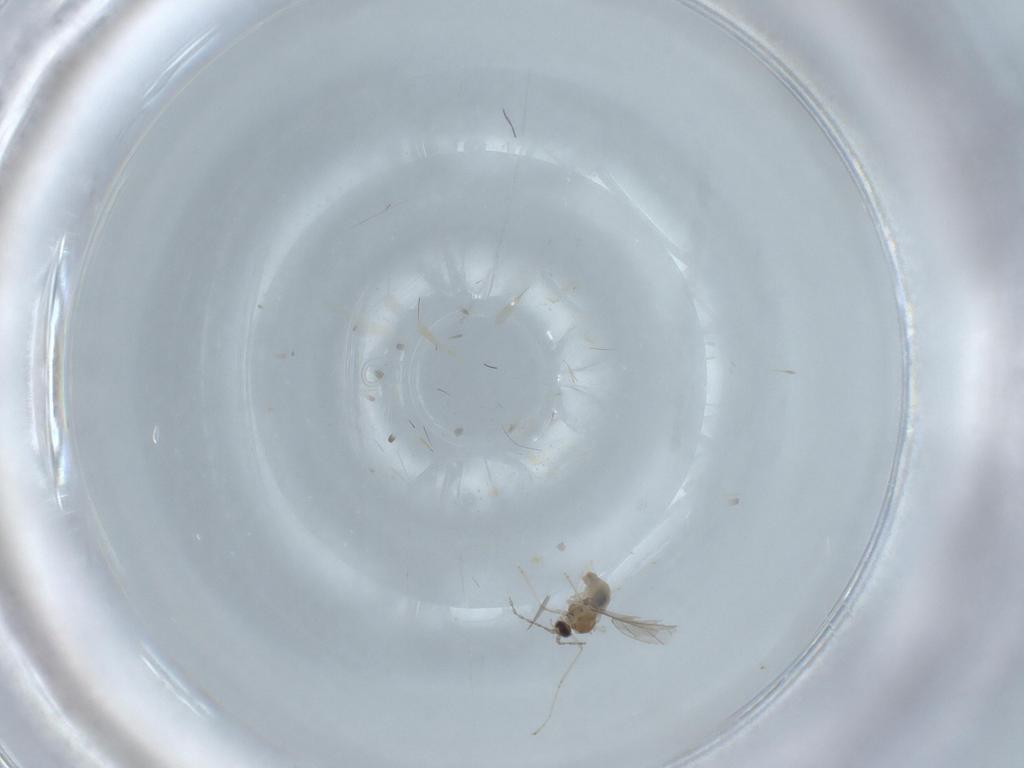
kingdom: Animalia
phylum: Arthropoda
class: Insecta
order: Diptera
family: Cecidomyiidae
